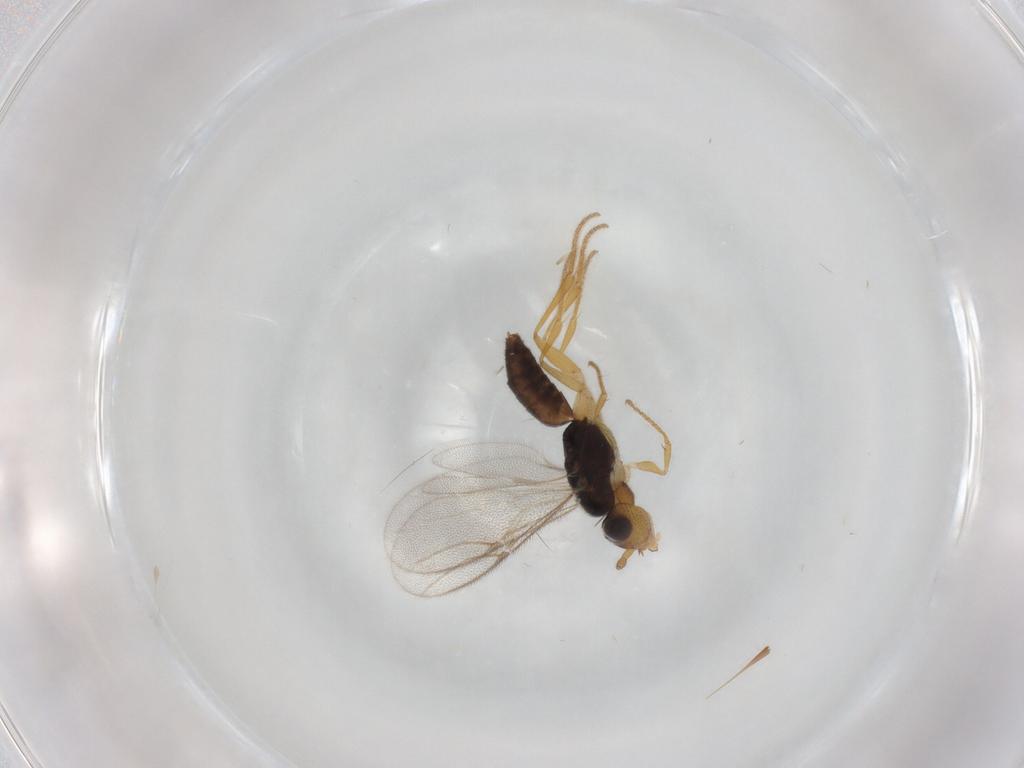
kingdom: Animalia
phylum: Arthropoda
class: Insecta
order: Hymenoptera
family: Dryinidae
